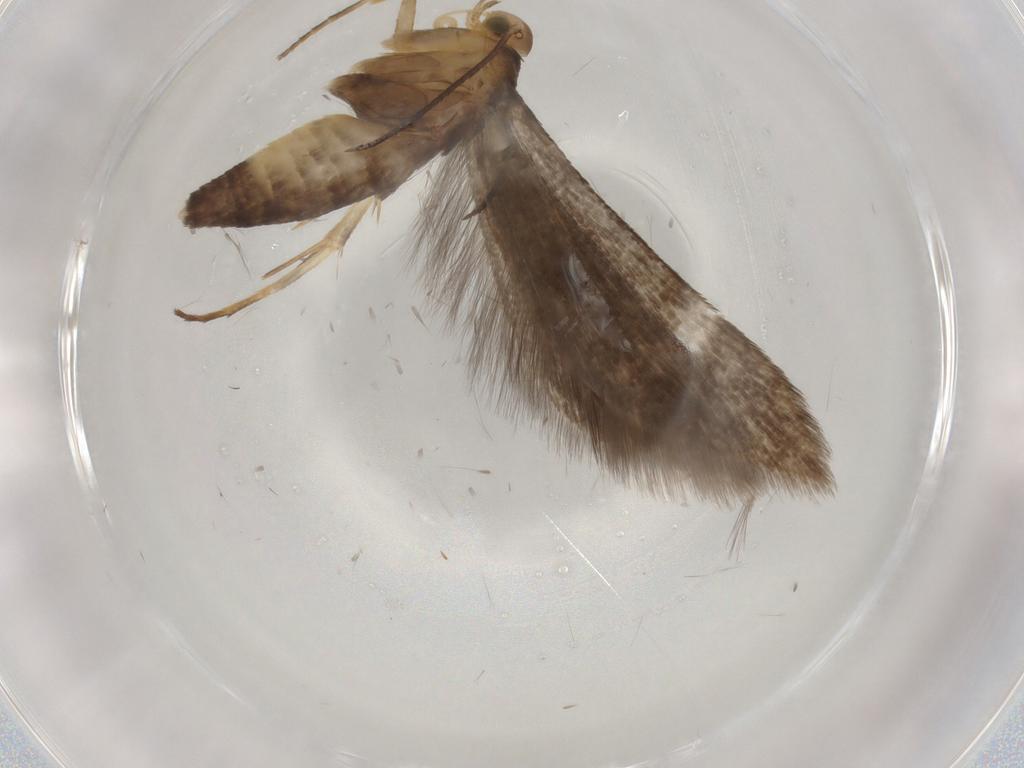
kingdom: Animalia
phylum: Arthropoda
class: Insecta
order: Lepidoptera
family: Oecophoridae
